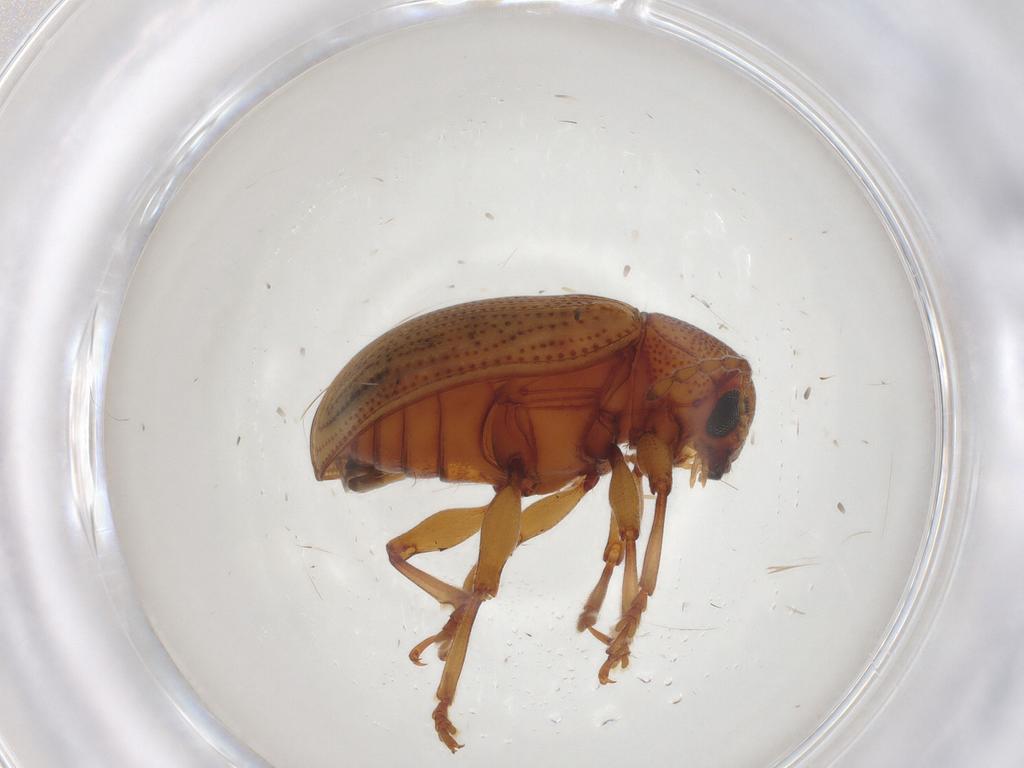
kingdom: Animalia
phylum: Arthropoda
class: Insecta
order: Coleoptera
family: Chrysomelidae
